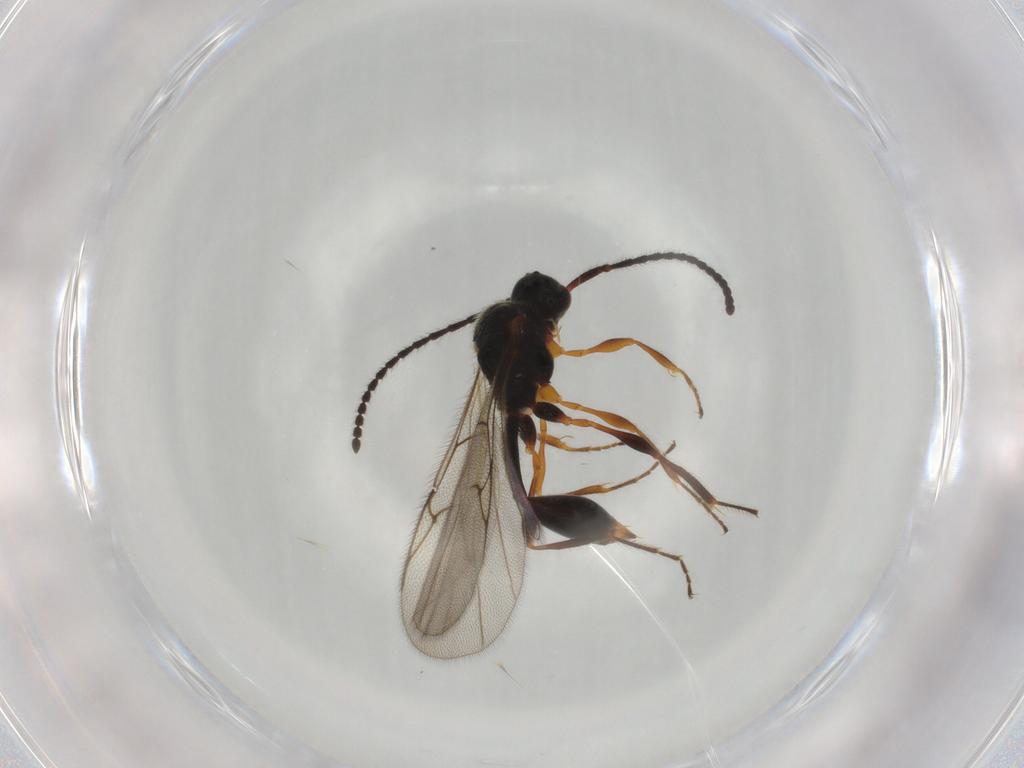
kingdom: Animalia
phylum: Arthropoda
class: Insecta
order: Hymenoptera
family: Diapriidae
